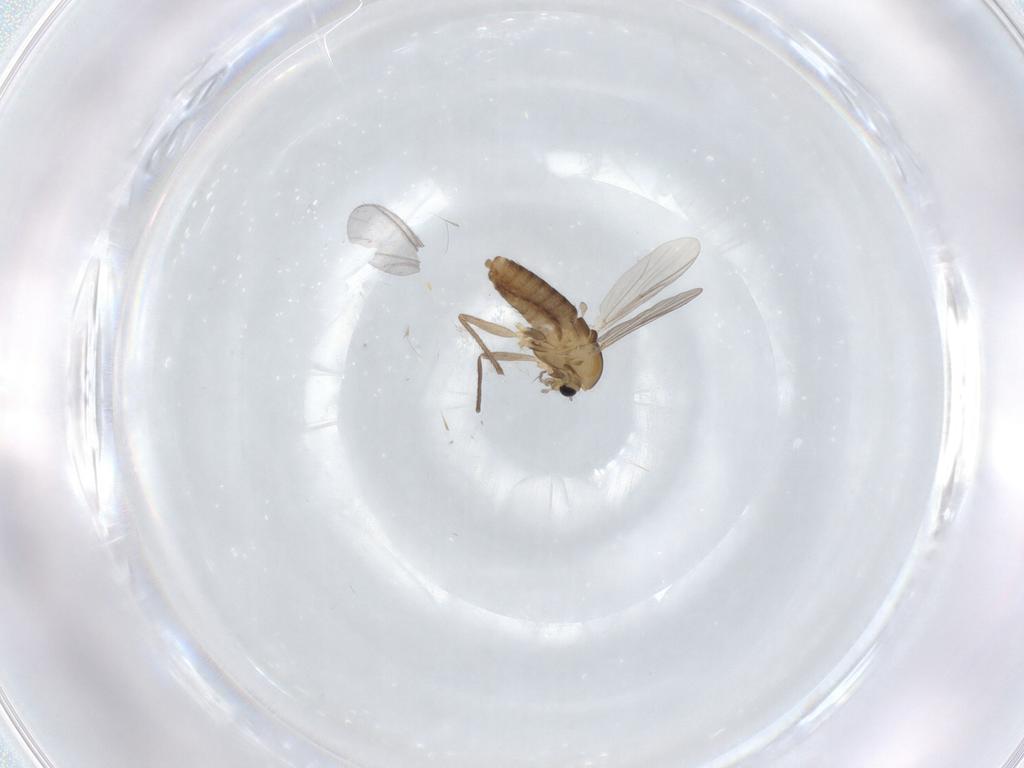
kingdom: Animalia
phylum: Arthropoda
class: Insecta
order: Diptera
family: Chironomidae
